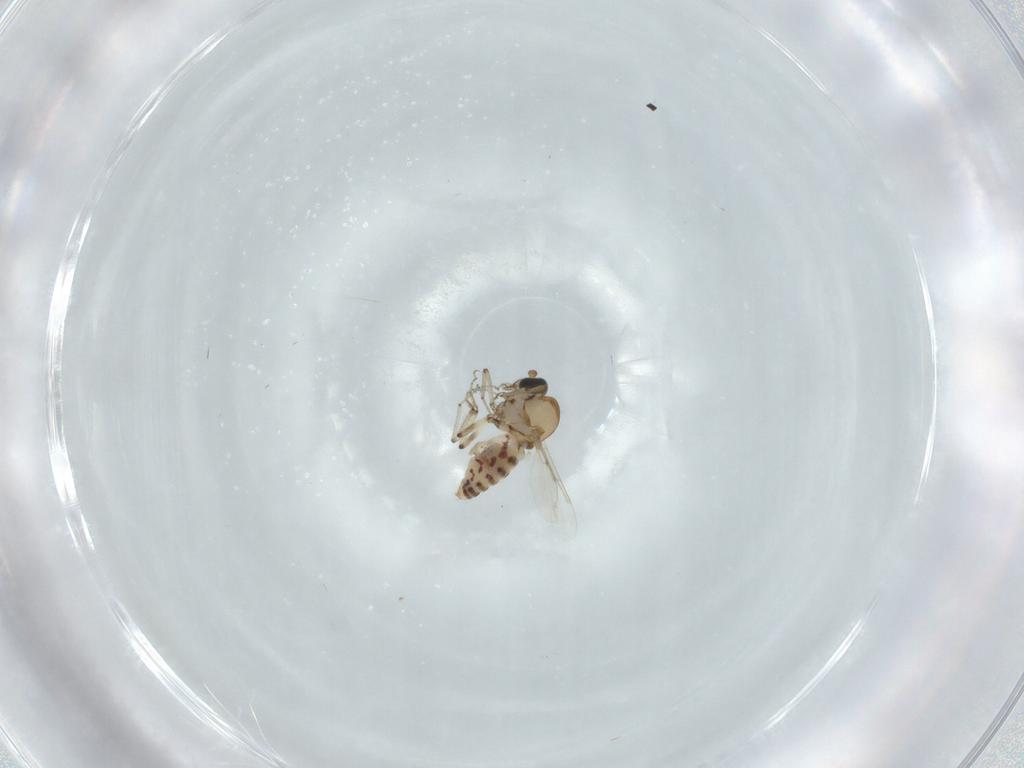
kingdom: Animalia
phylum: Arthropoda
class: Insecta
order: Diptera
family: Ceratopogonidae
